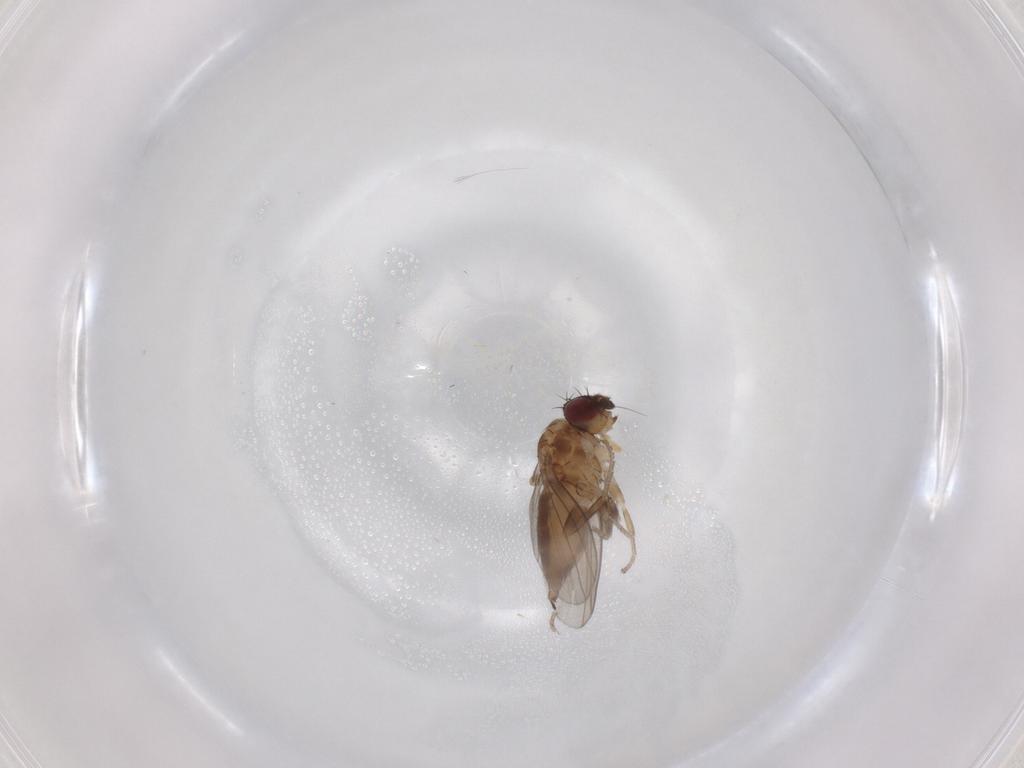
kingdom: Animalia
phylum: Arthropoda
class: Insecta
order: Diptera
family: Milichiidae
